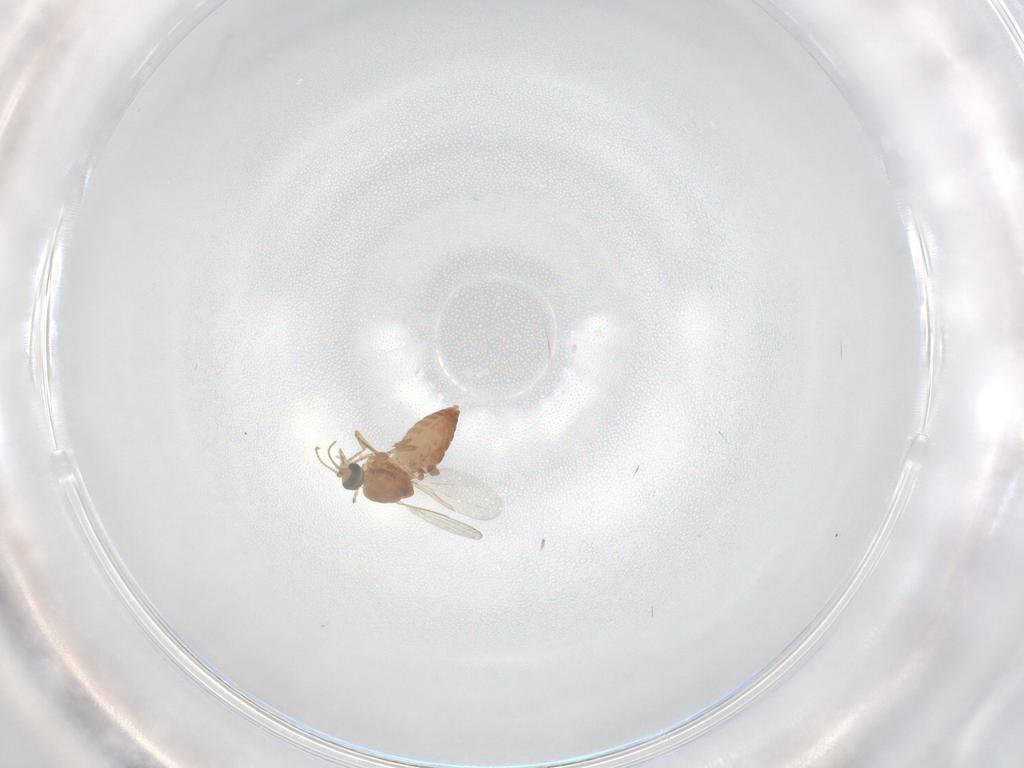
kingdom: Animalia
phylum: Arthropoda
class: Insecta
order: Diptera
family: Ceratopogonidae
